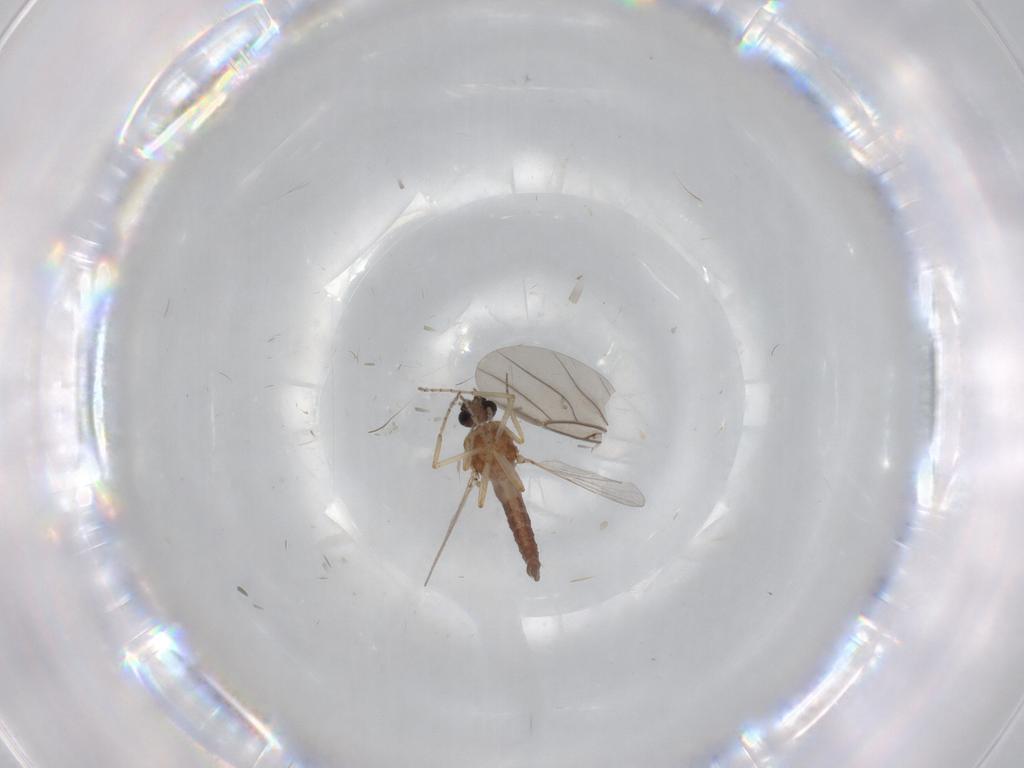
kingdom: Animalia
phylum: Arthropoda
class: Insecta
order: Diptera
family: Ceratopogonidae
